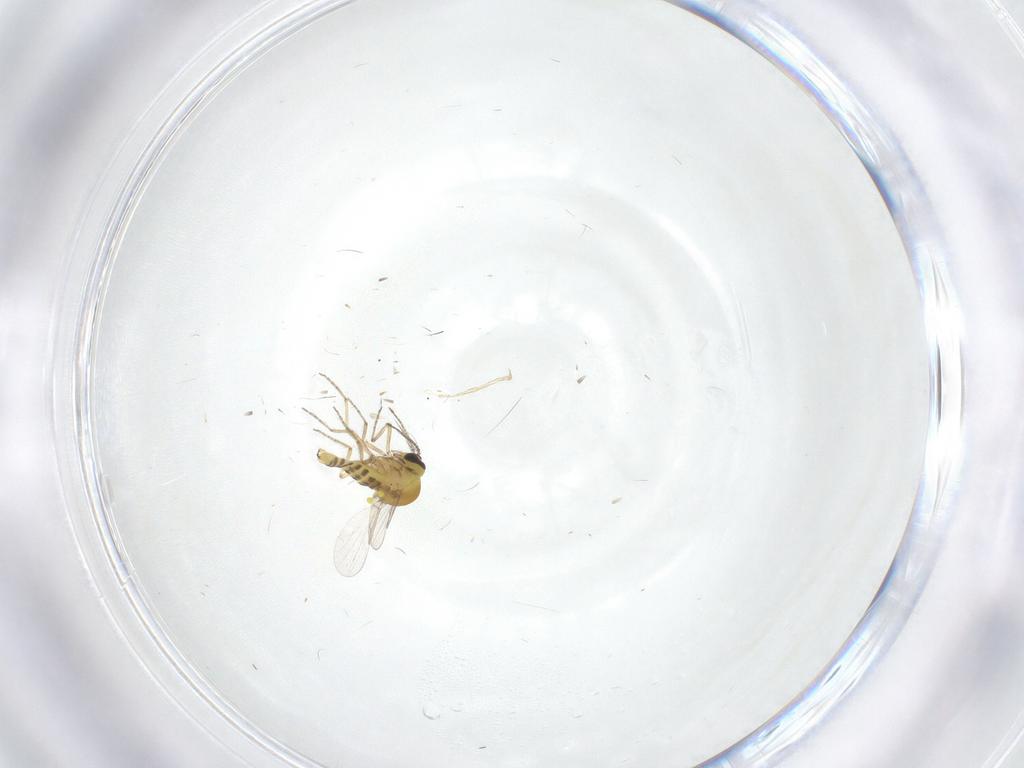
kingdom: Animalia
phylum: Arthropoda
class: Insecta
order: Diptera
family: Ceratopogonidae
